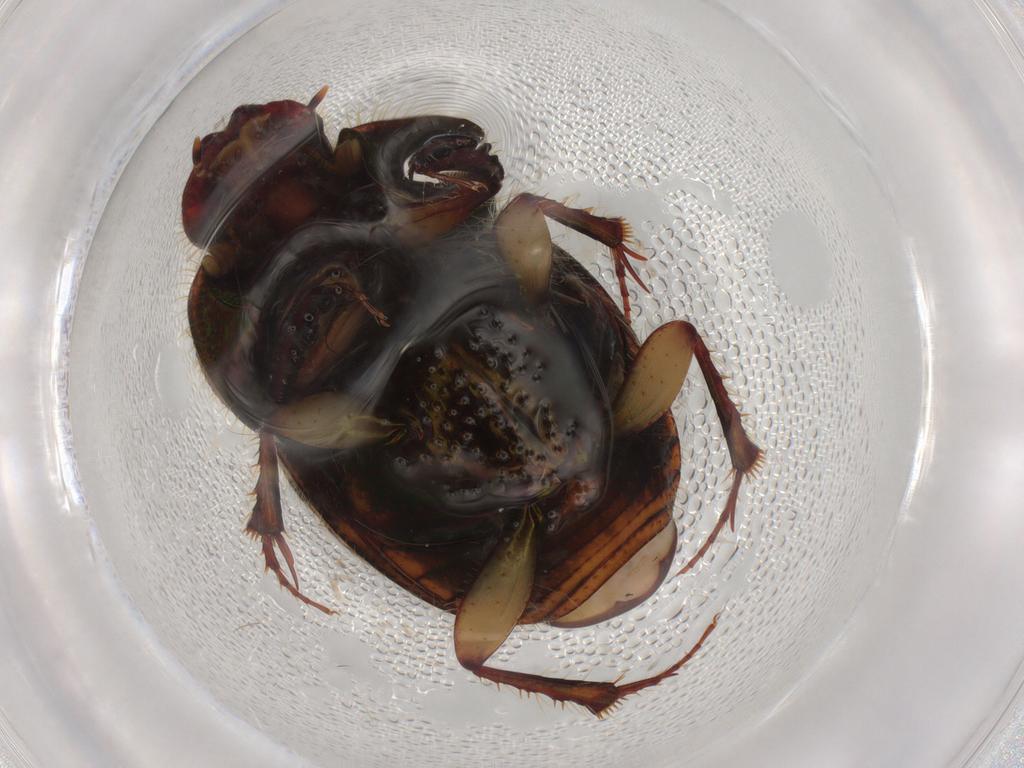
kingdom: Animalia
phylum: Arthropoda
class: Insecta
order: Coleoptera
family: Scarabaeidae
